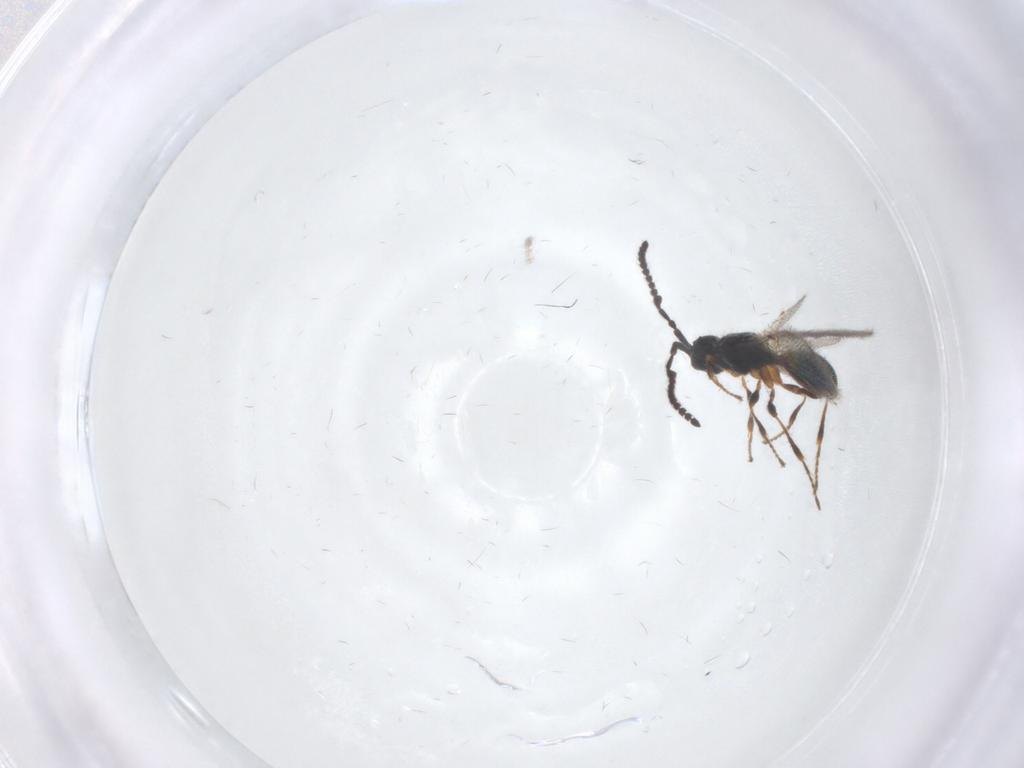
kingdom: Animalia
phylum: Arthropoda
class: Insecta
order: Hymenoptera
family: Diapriidae
